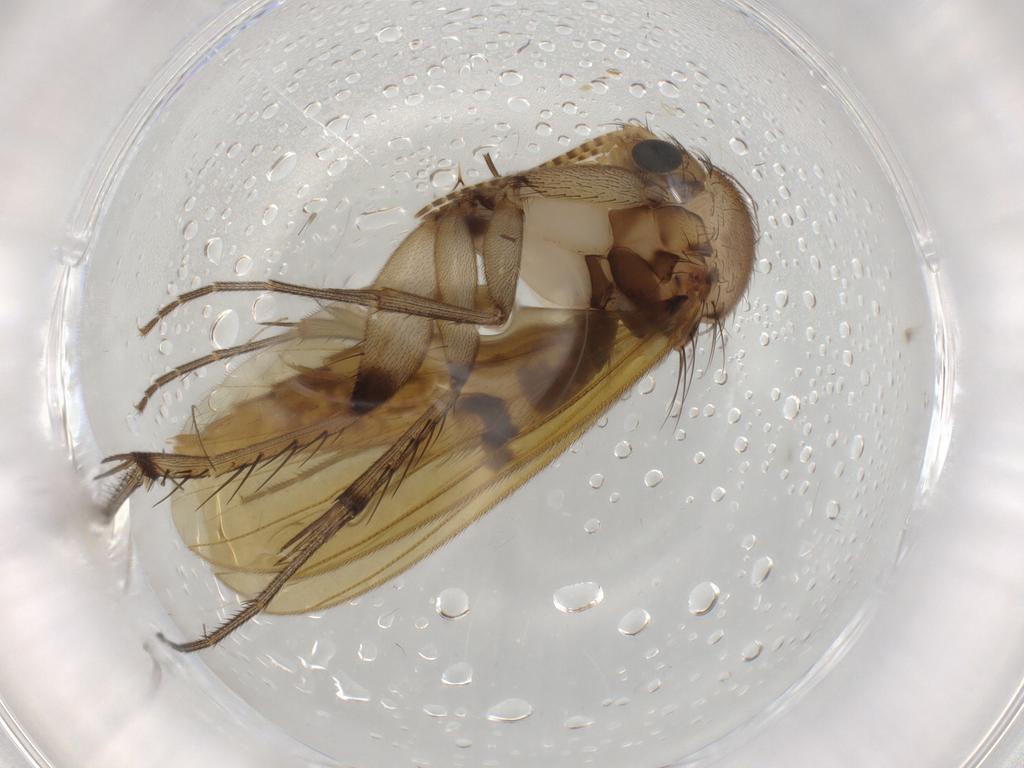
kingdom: Animalia
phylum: Arthropoda
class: Insecta
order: Diptera
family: Mycetophilidae
